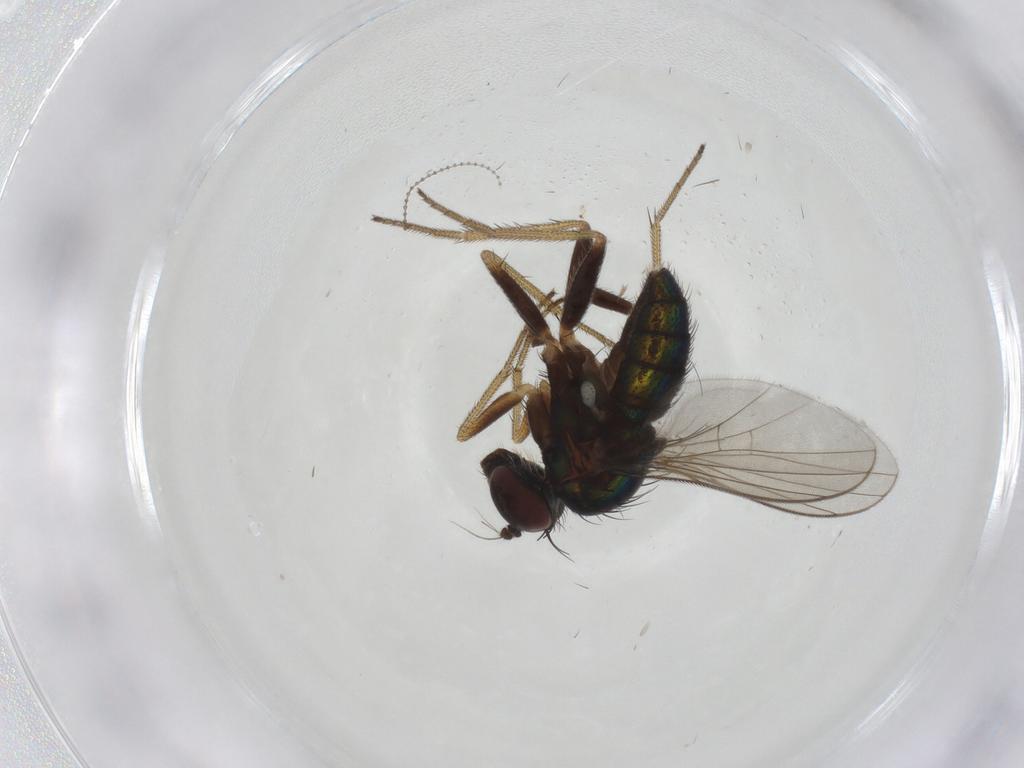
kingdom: Animalia
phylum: Arthropoda
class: Insecta
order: Diptera
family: Cecidomyiidae
